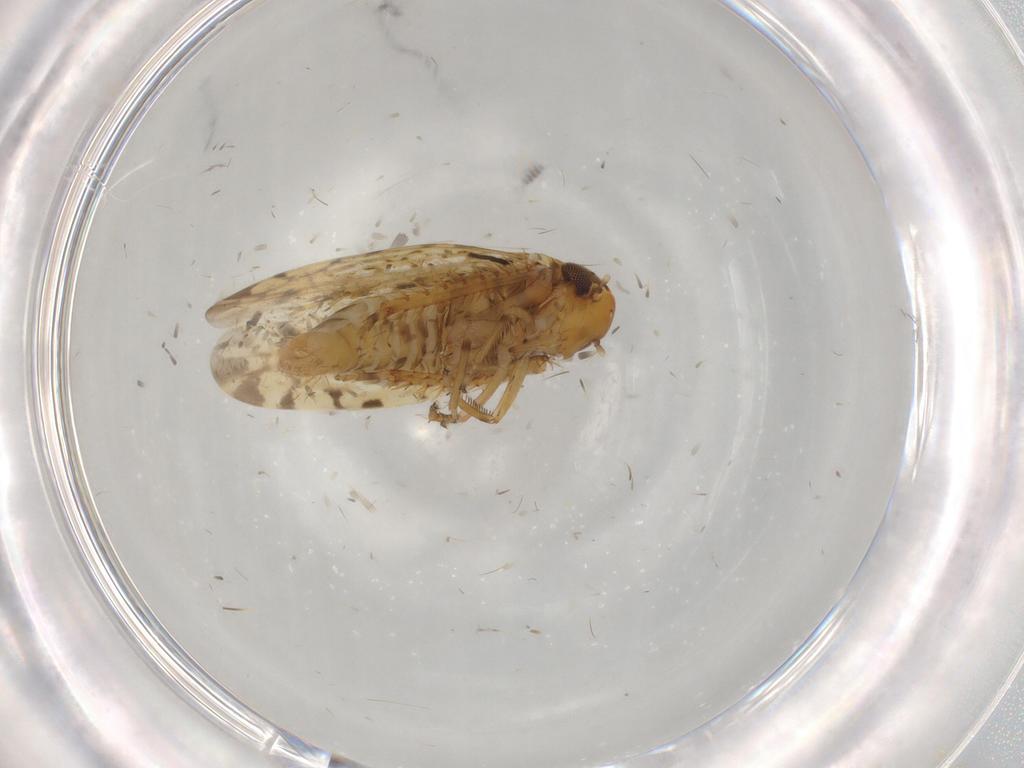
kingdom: Animalia
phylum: Arthropoda
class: Insecta
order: Hemiptera
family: Cicadellidae
